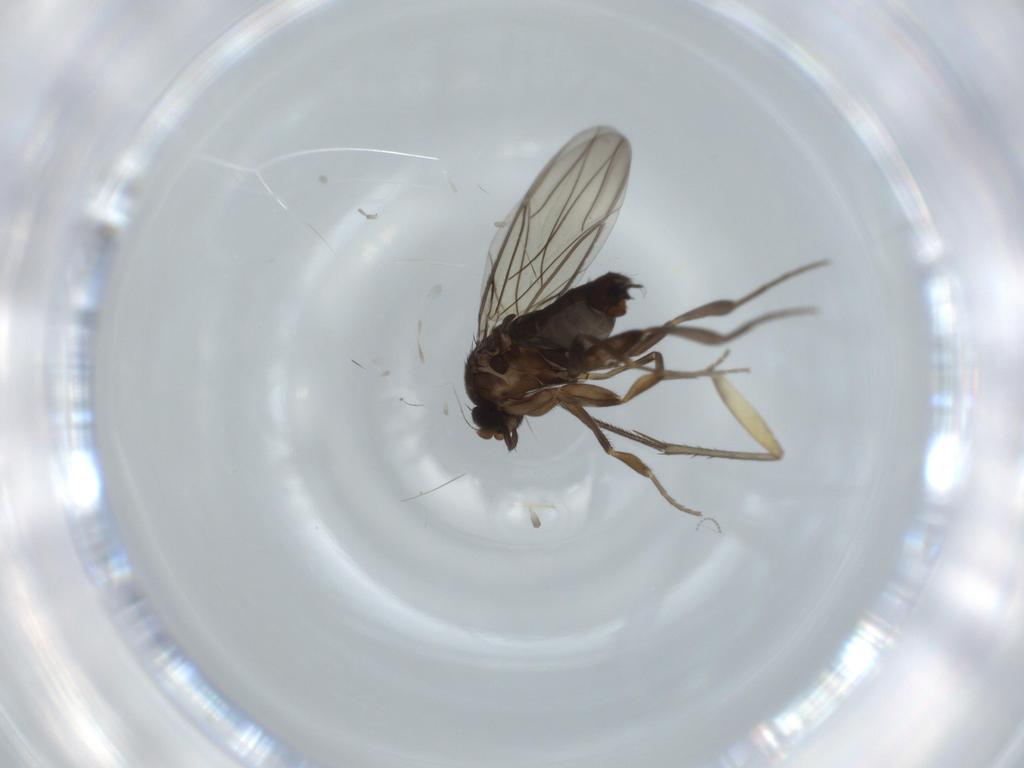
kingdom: Animalia
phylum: Arthropoda
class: Insecta
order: Diptera
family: Mycetophilidae
